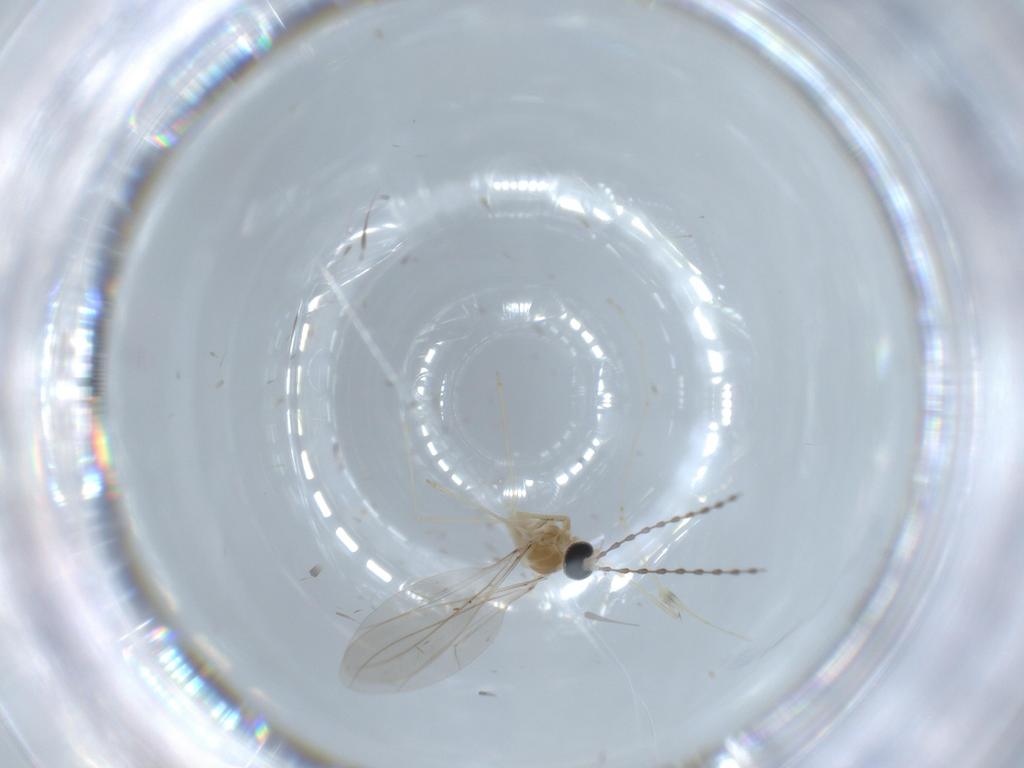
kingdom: Animalia
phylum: Arthropoda
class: Insecta
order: Diptera
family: Cecidomyiidae
